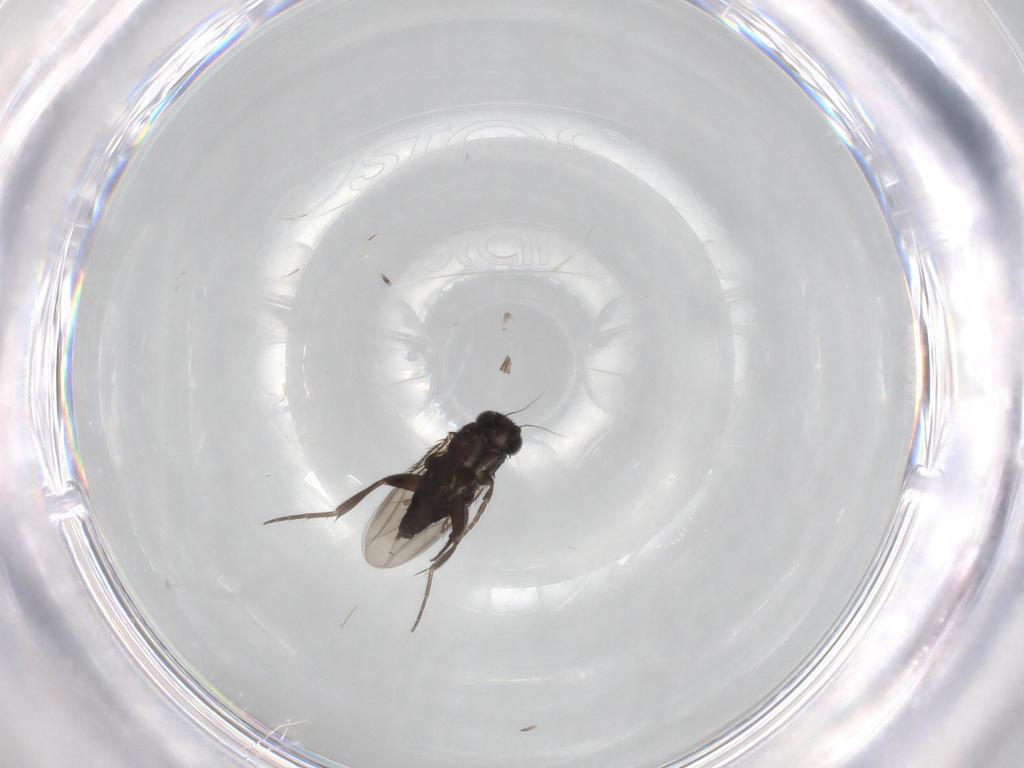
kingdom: Animalia
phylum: Arthropoda
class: Insecta
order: Diptera
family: Phoridae
